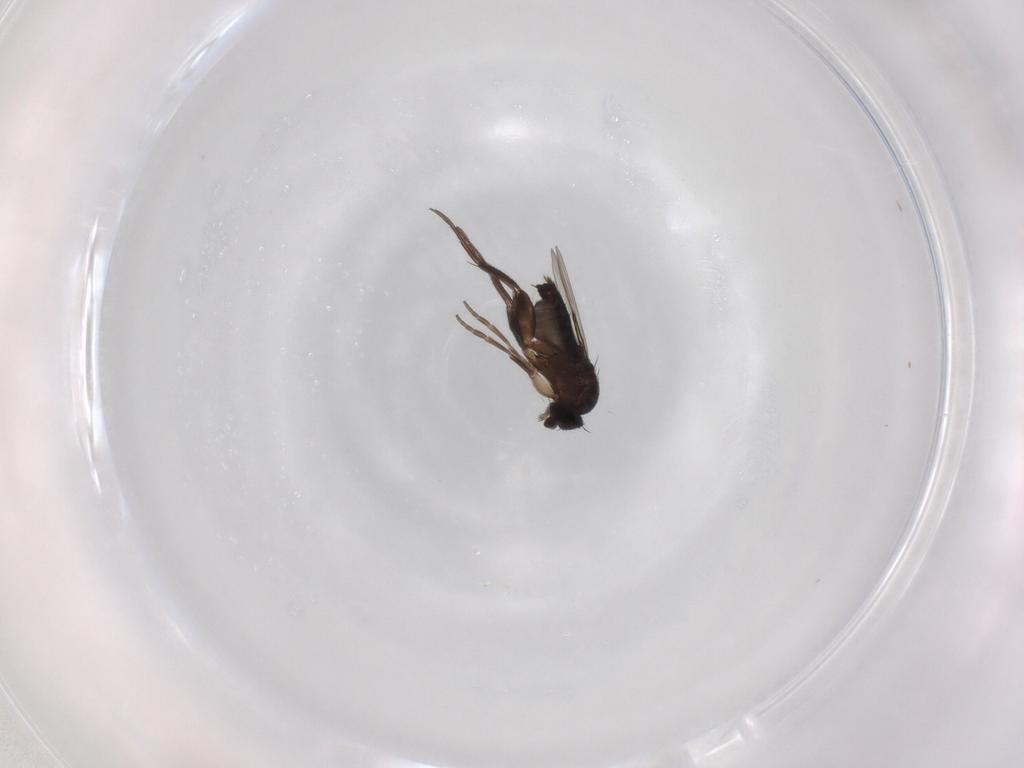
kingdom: Animalia
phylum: Arthropoda
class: Insecta
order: Diptera
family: Phoridae
